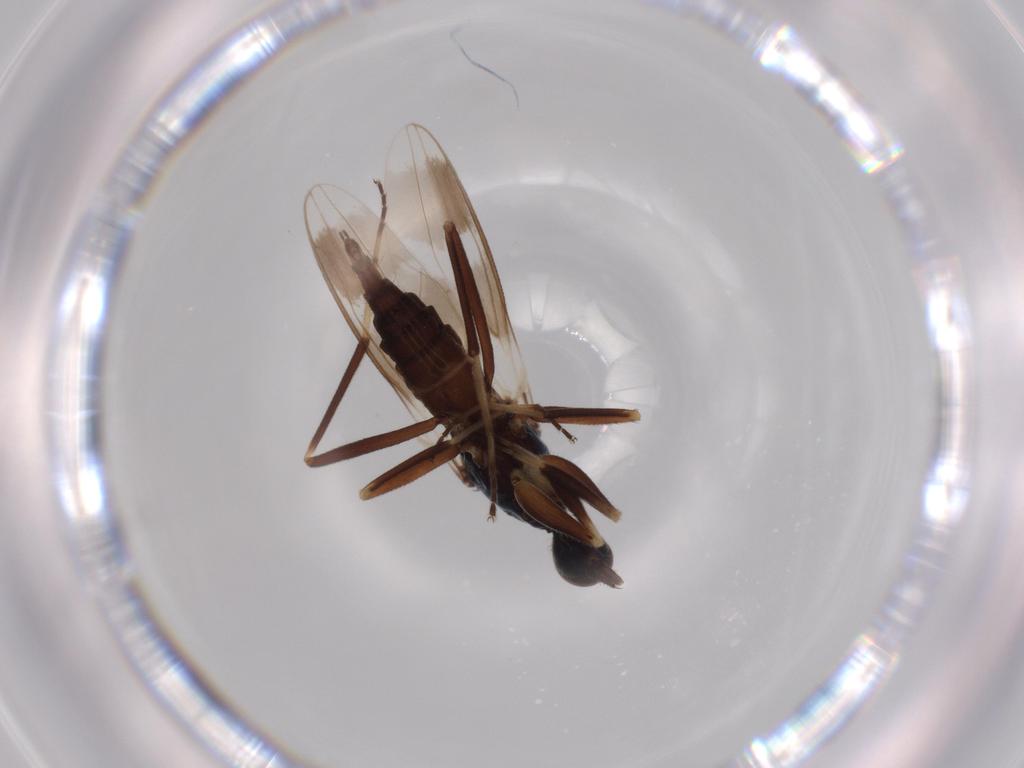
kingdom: Animalia
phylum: Arthropoda
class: Insecta
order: Diptera
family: Hybotidae
